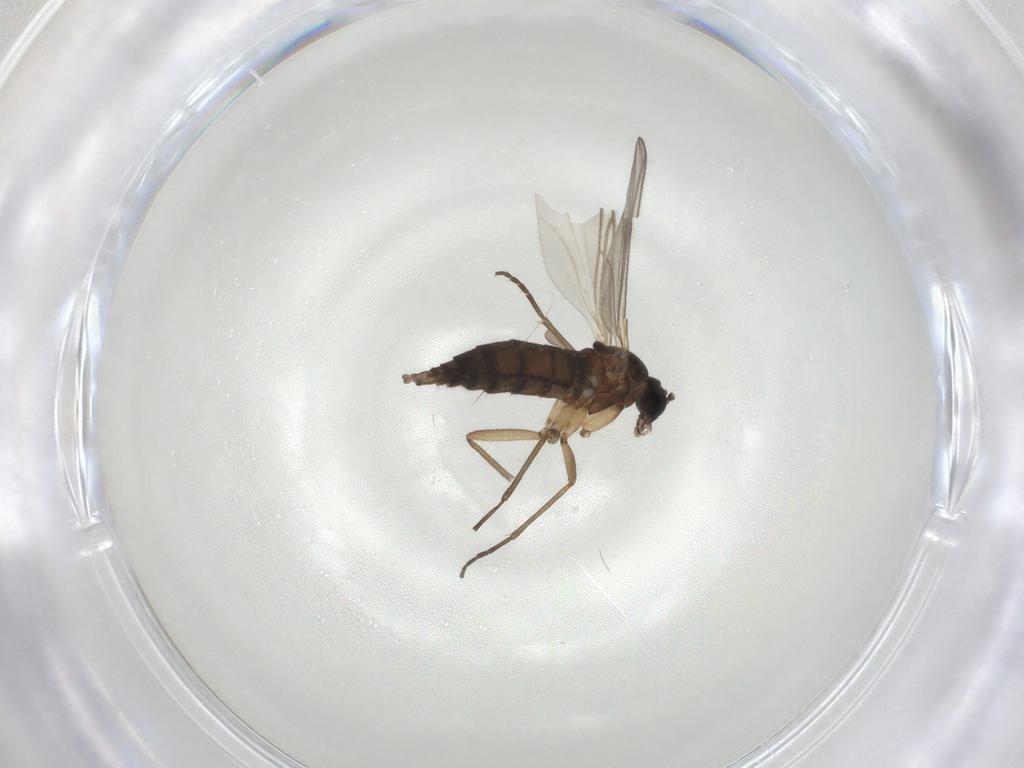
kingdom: Animalia
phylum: Arthropoda
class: Insecta
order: Diptera
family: Sciaridae
